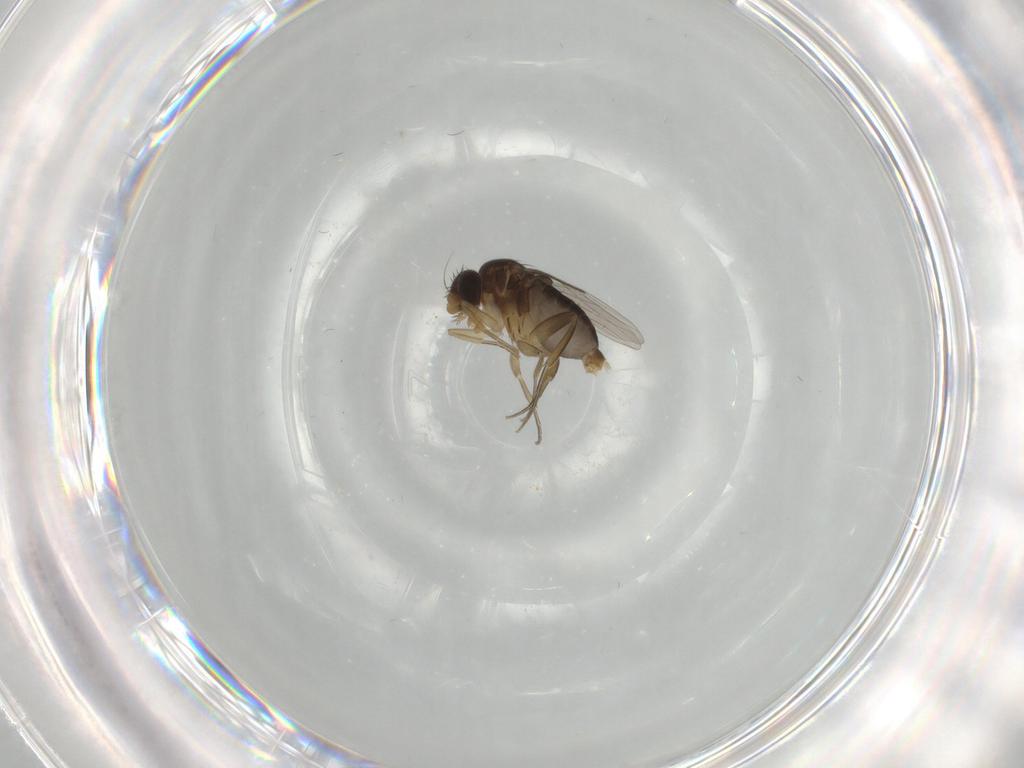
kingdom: Animalia
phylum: Arthropoda
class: Insecta
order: Diptera
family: Phoridae
